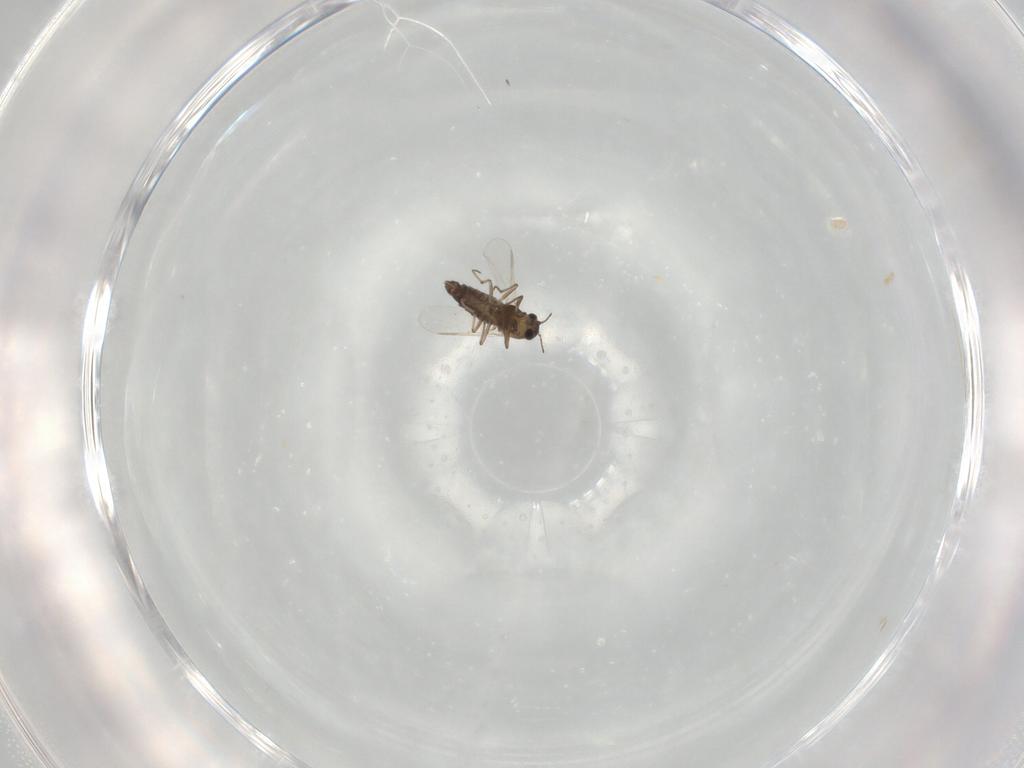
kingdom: Animalia
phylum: Arthropoda
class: Insecta
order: Diptera
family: Chironomidae
